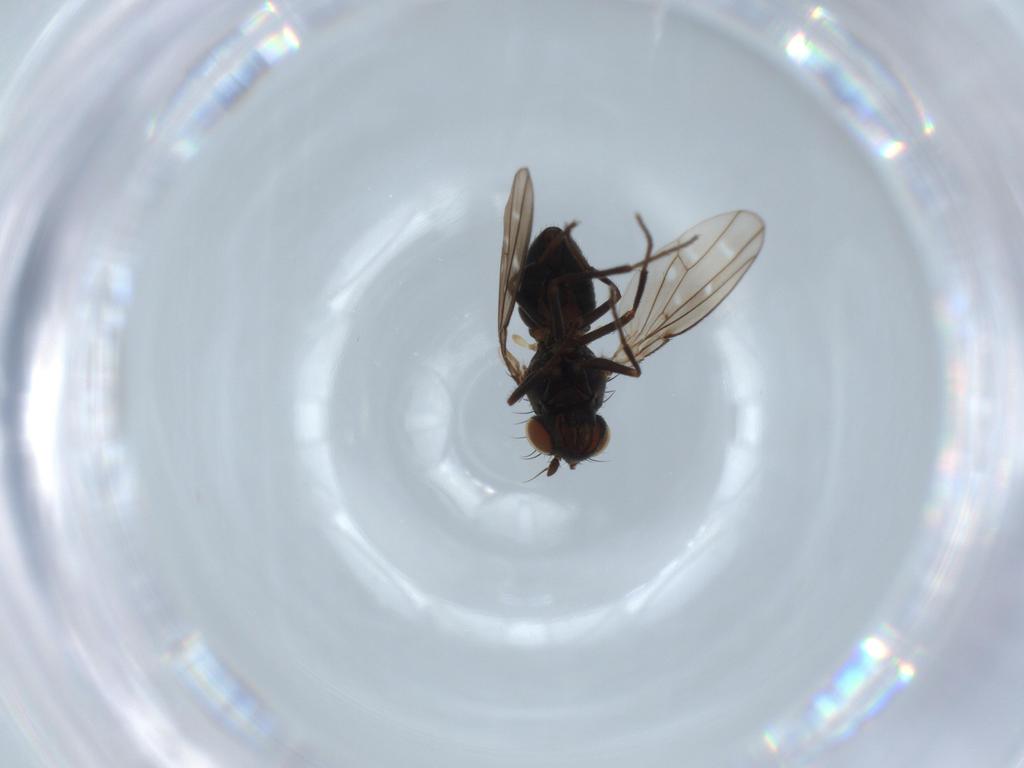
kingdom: Animalia
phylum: Arthropoda
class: Insecta
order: Diptera
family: Ephydridae
